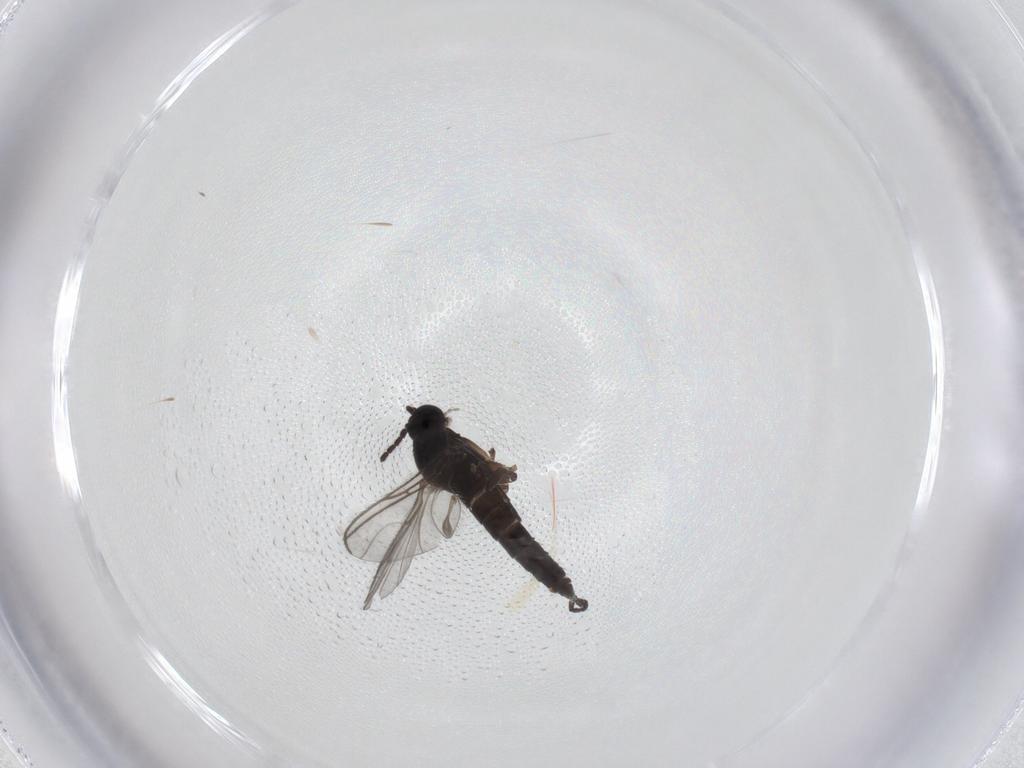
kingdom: Animalia
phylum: Arthropoda
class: Insecta
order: Diptera
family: Sciaridae
